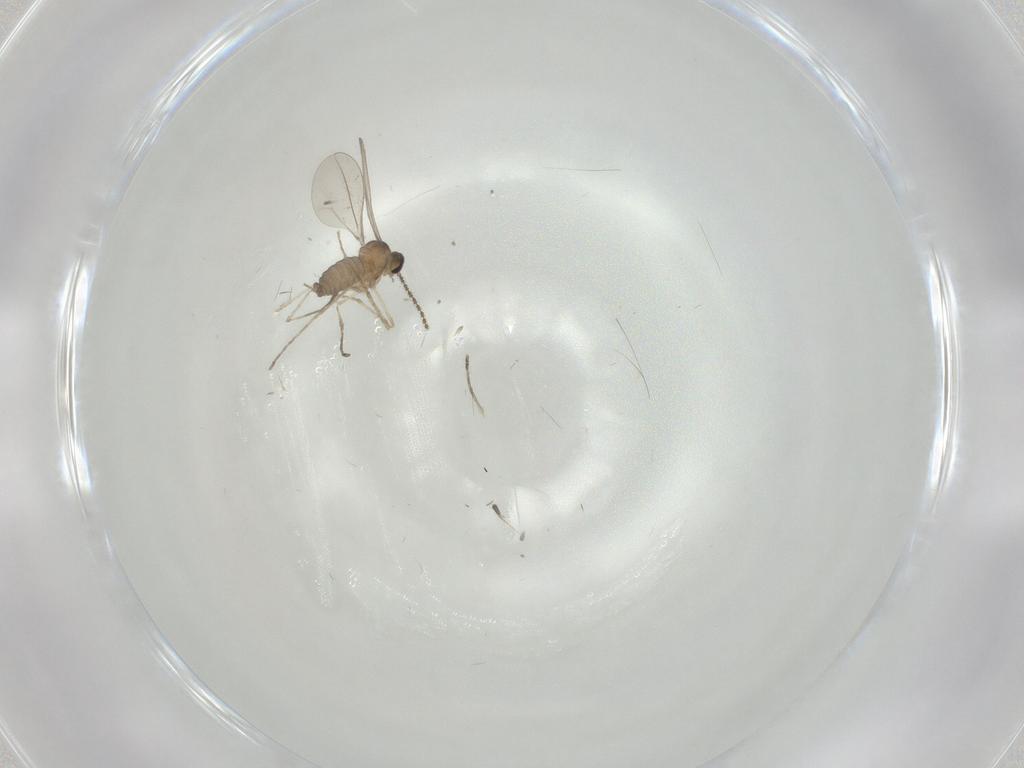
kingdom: Animalia
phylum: Arthropoda
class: Insecta
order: Diptera
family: Cecidomyiidae
